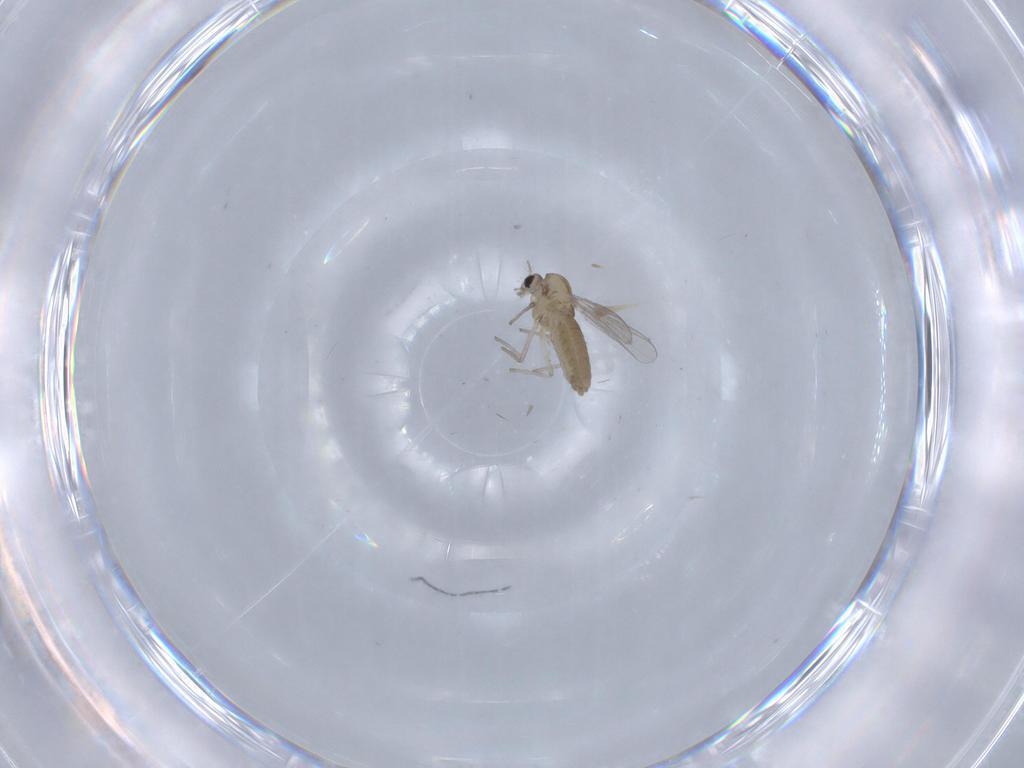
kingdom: Animalia
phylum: Arthropoda
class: Insecta
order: Diptera
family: Chironomidae
